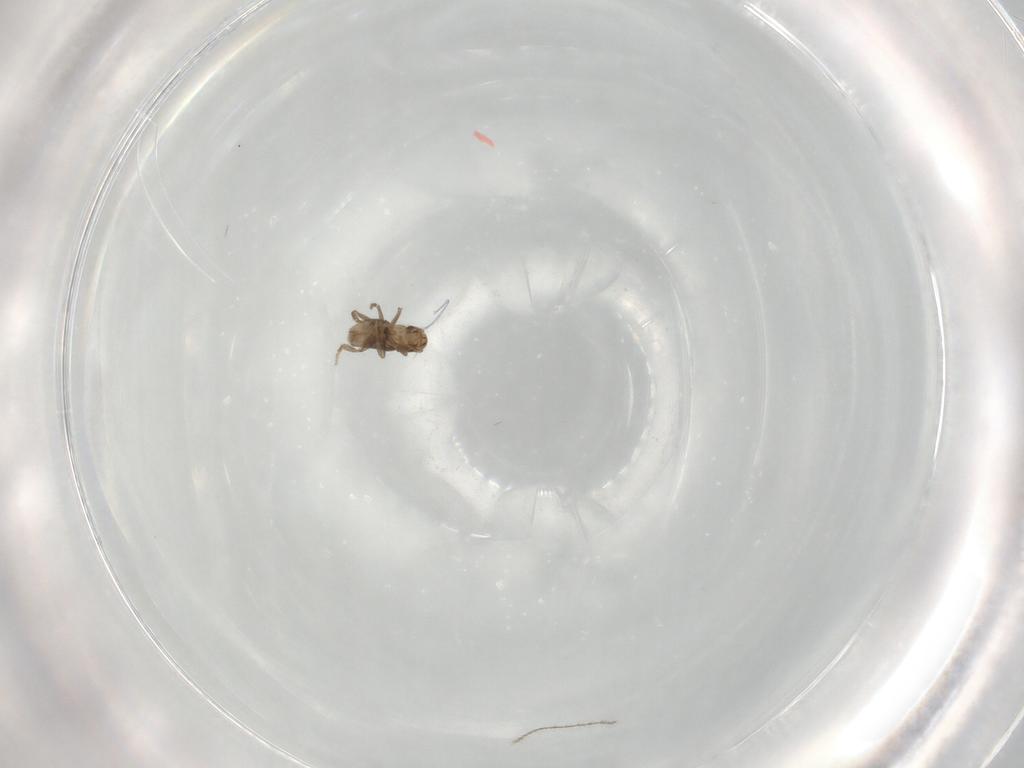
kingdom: Animalia
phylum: Arthropoda
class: Insecta
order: Diptera
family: Ceratopogonidae
